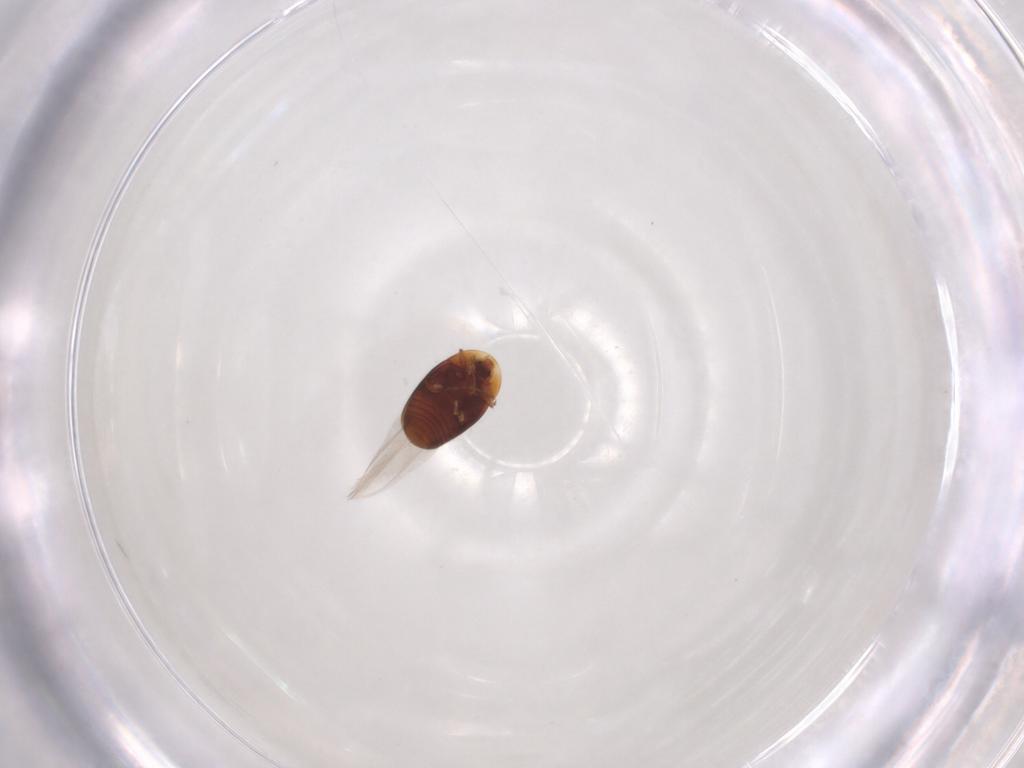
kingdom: Animalia
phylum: Arthropoda
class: Insecta
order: Coleoptera
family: Corylophidae
